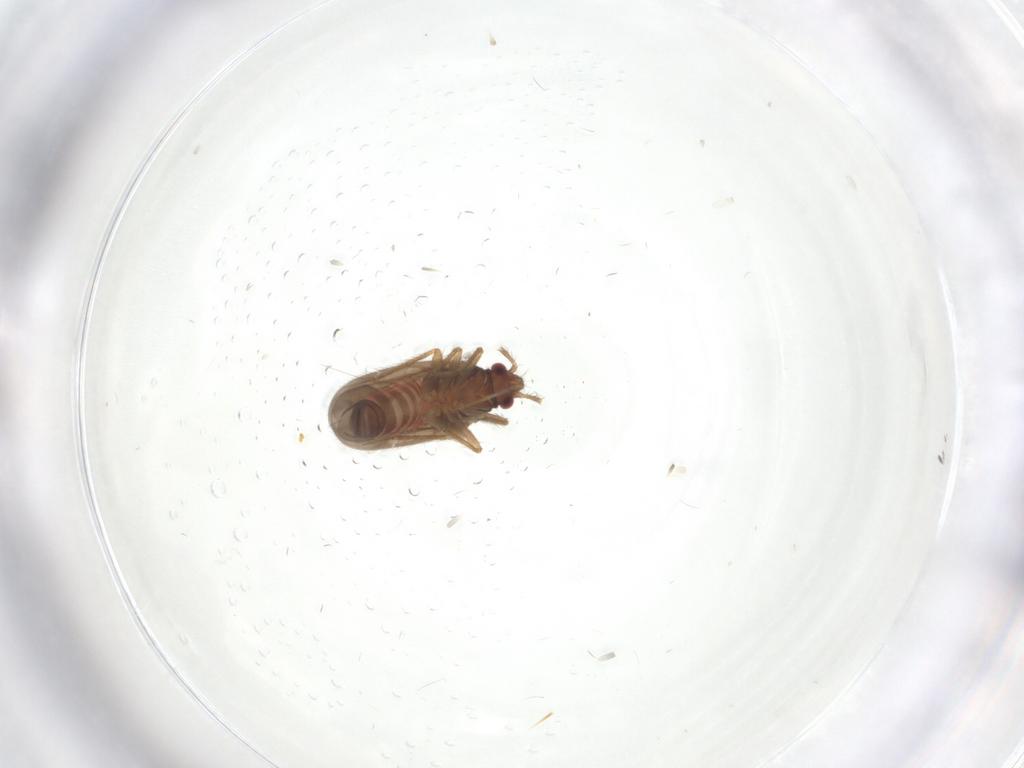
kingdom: Animalia
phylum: Arthropoda
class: Insecta
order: Hemiptera
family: Ceratocombidae
